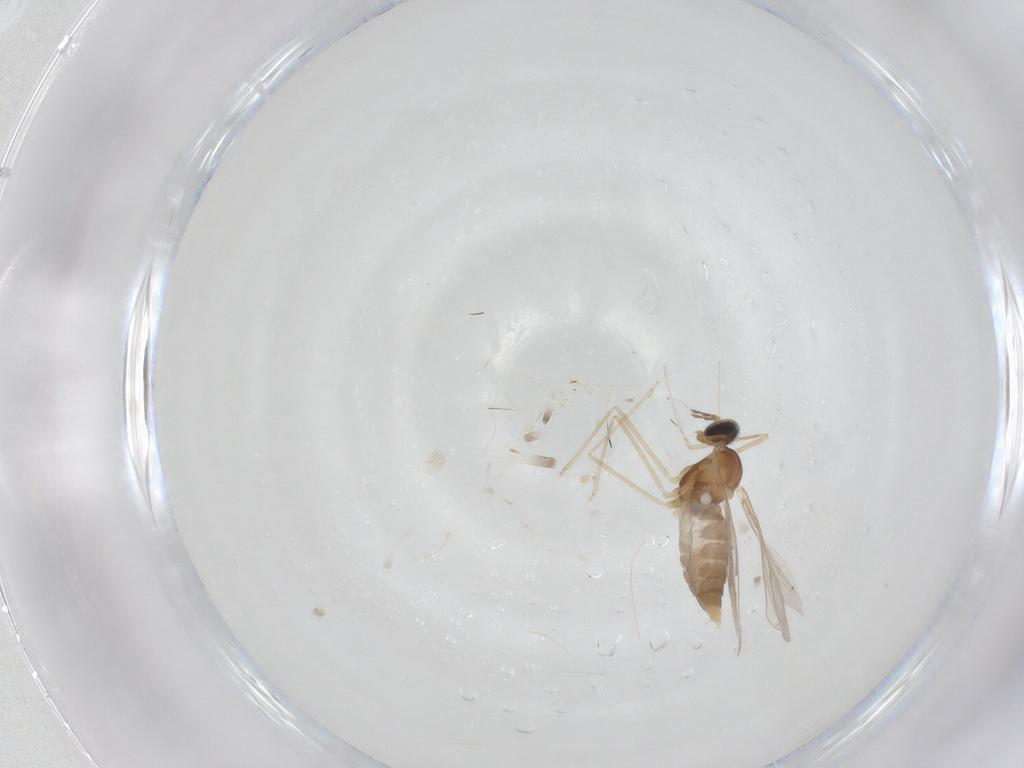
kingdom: Animalia
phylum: Arthropoda
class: Insecta
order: Diptera
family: Cecidomyiidae
